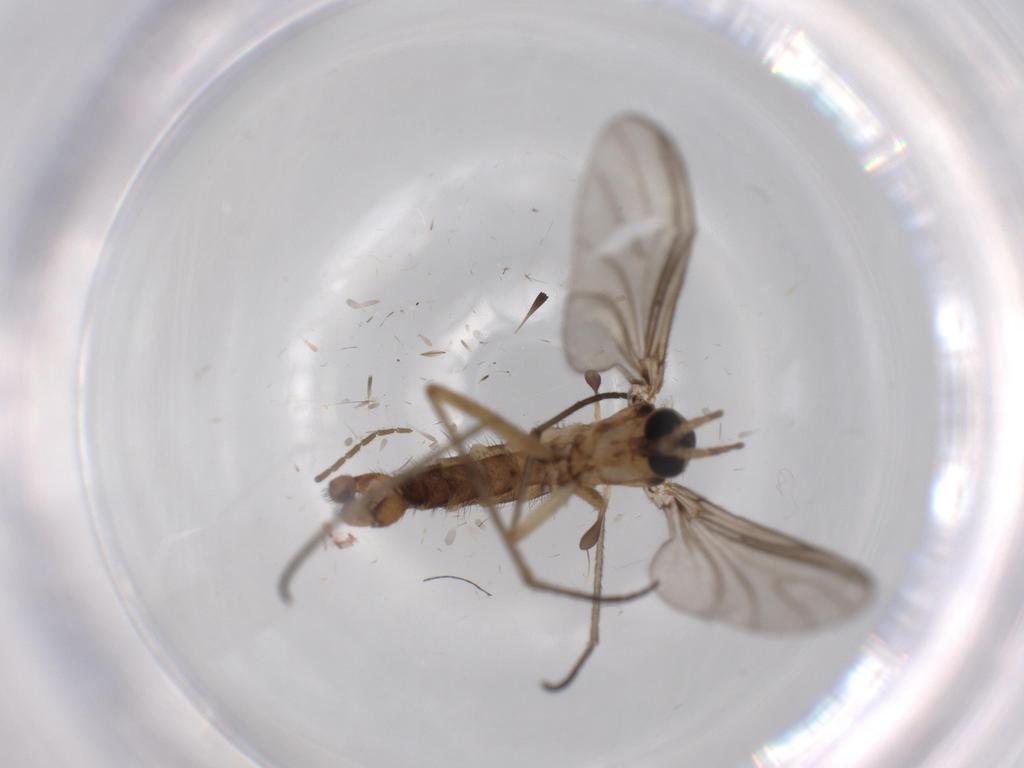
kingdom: Animalia
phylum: Arthropoda
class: Insecta
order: Diptera
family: Sciaridae
